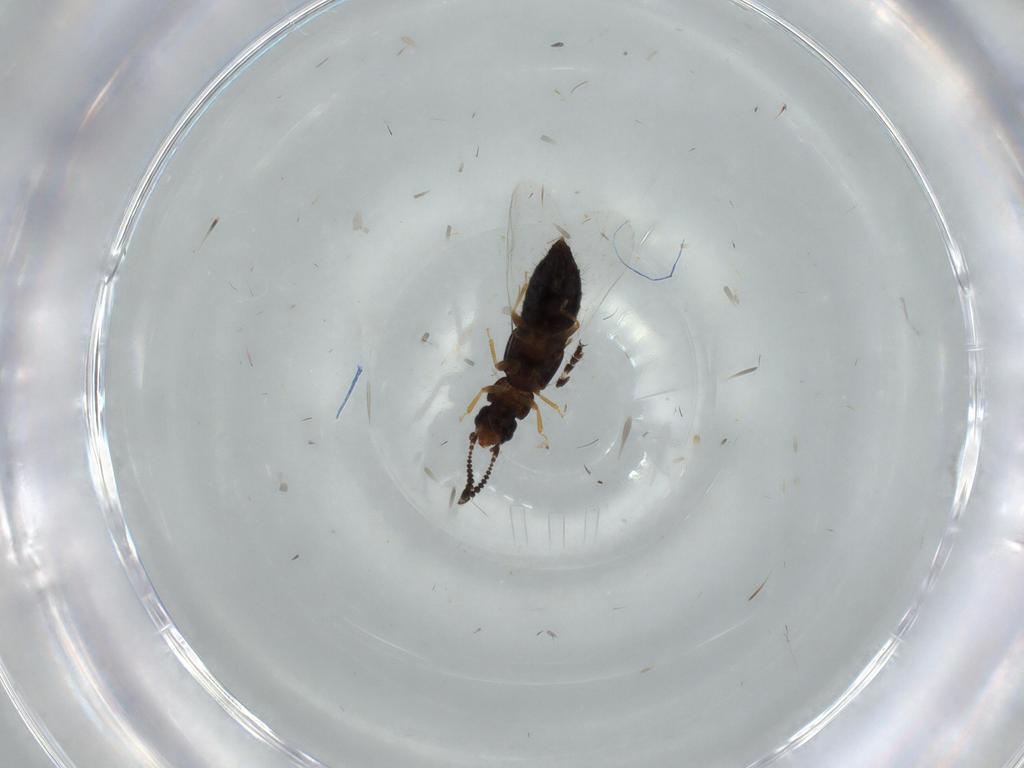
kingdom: Animalia
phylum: Arthropoda
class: Insecta
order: Coleoptera
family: Staphylinidae
